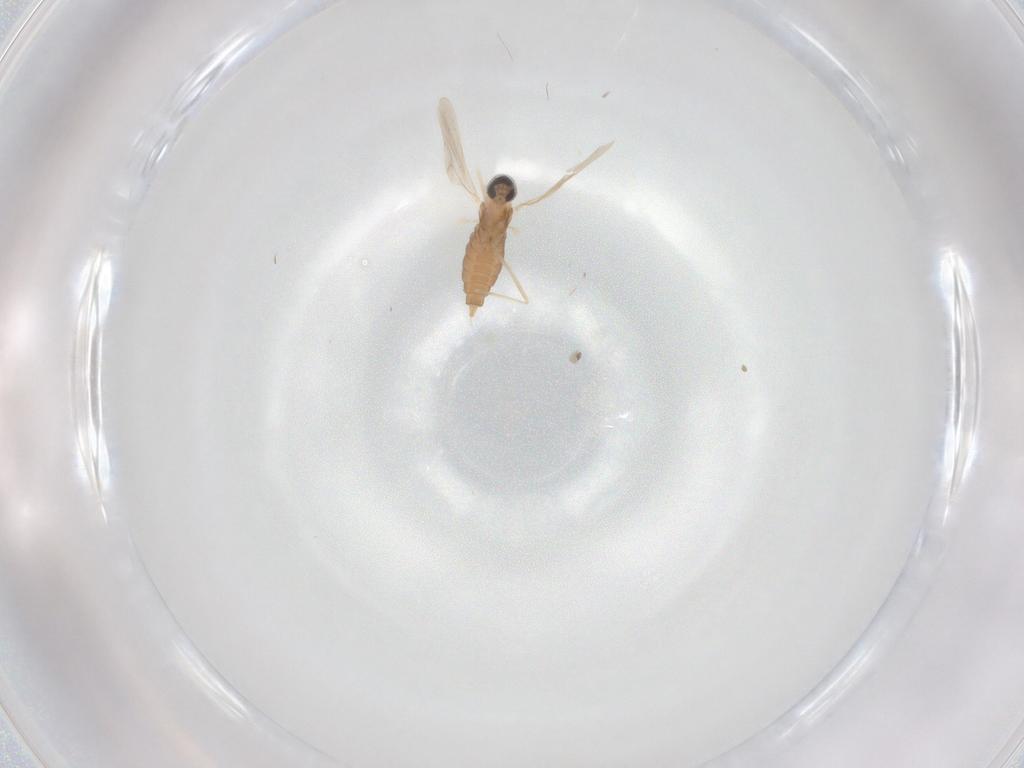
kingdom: Animalia
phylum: Arthropoda
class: Insecta
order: Diptera
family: Cecidomyiidae
